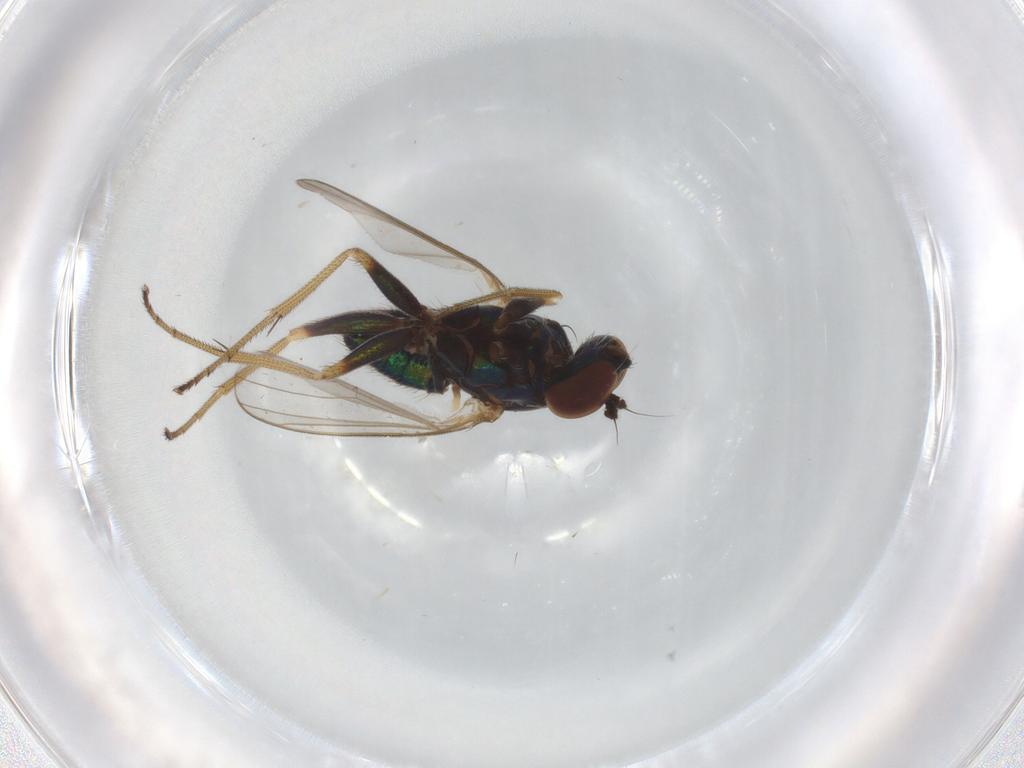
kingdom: Animalia
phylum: Arthropoda
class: Insecta
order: Diptera
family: Dolichopodidae
